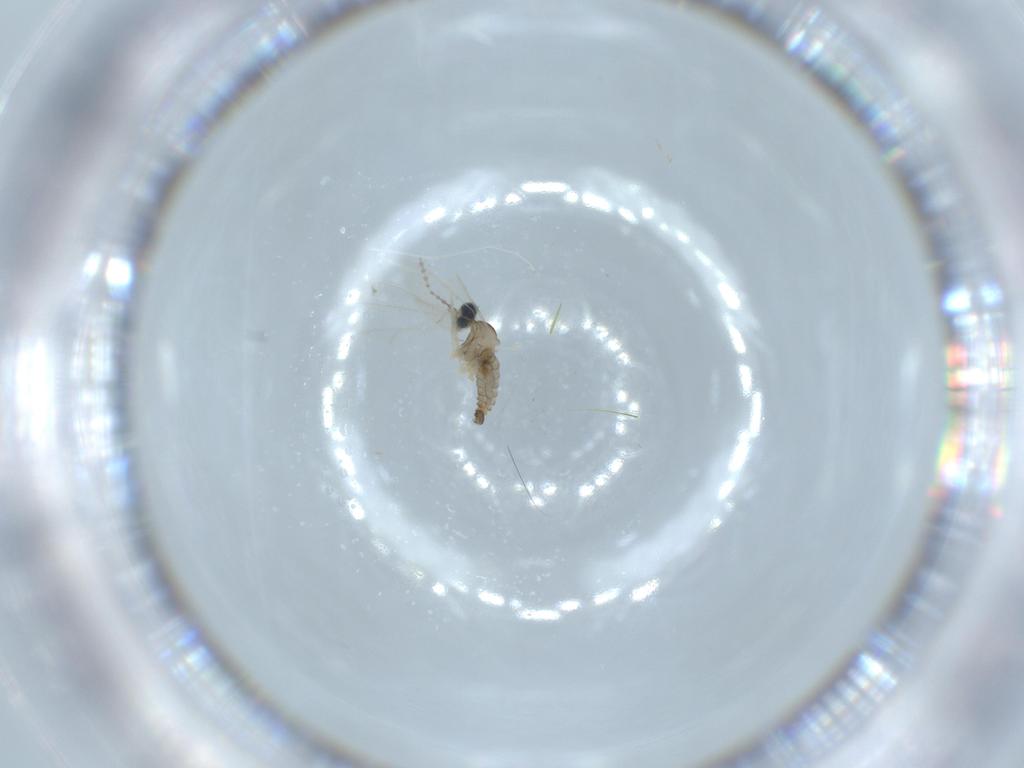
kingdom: Animalia
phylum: Arthropoda
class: Insecta
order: Diptera
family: Cecidomyiidae
